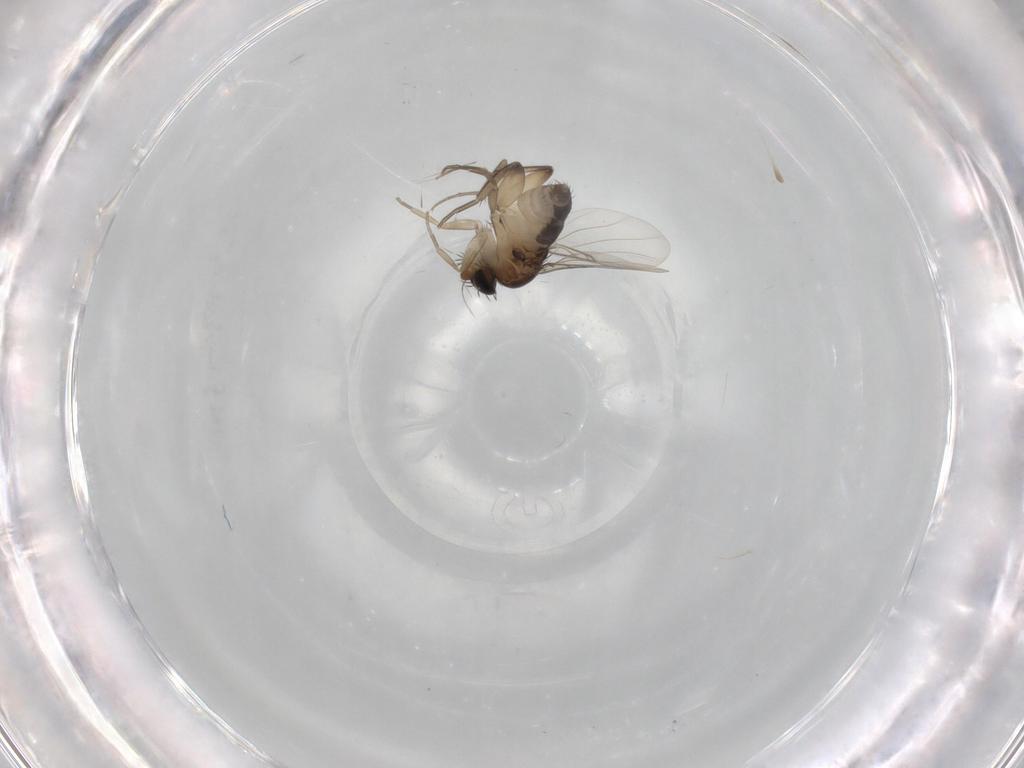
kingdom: Animalia
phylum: Arthropoda
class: Insecta
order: Diptera
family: Phoridae
